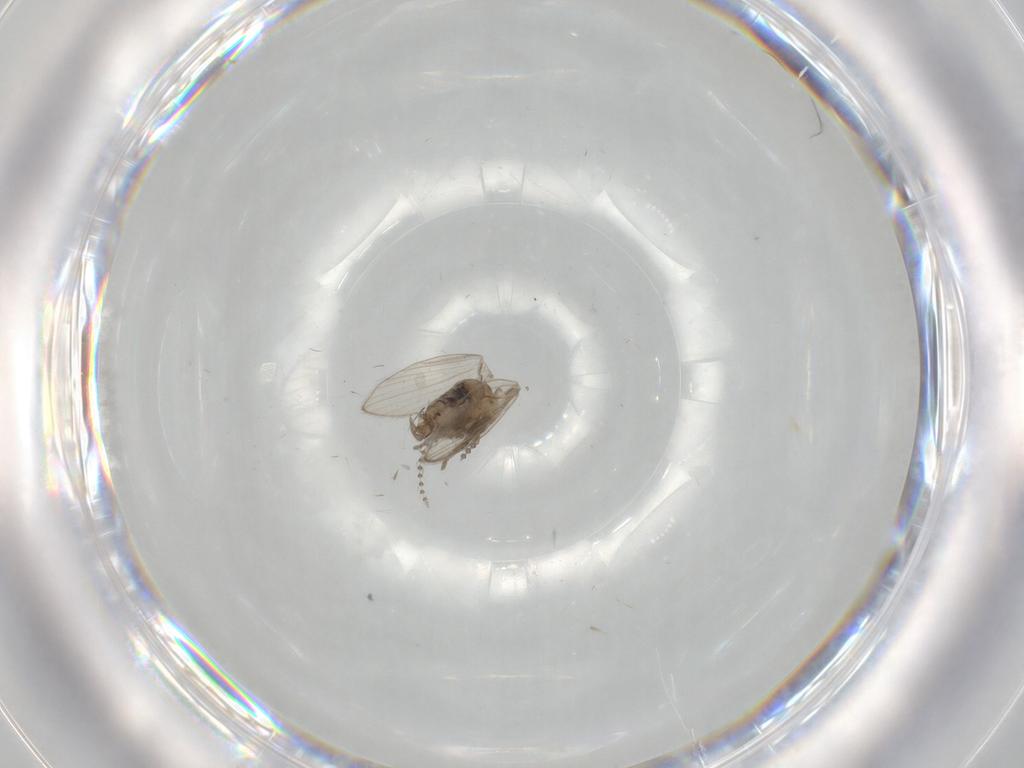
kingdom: Animalia
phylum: Arthropoda
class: Insecta
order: Diptera
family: Psychodidae
